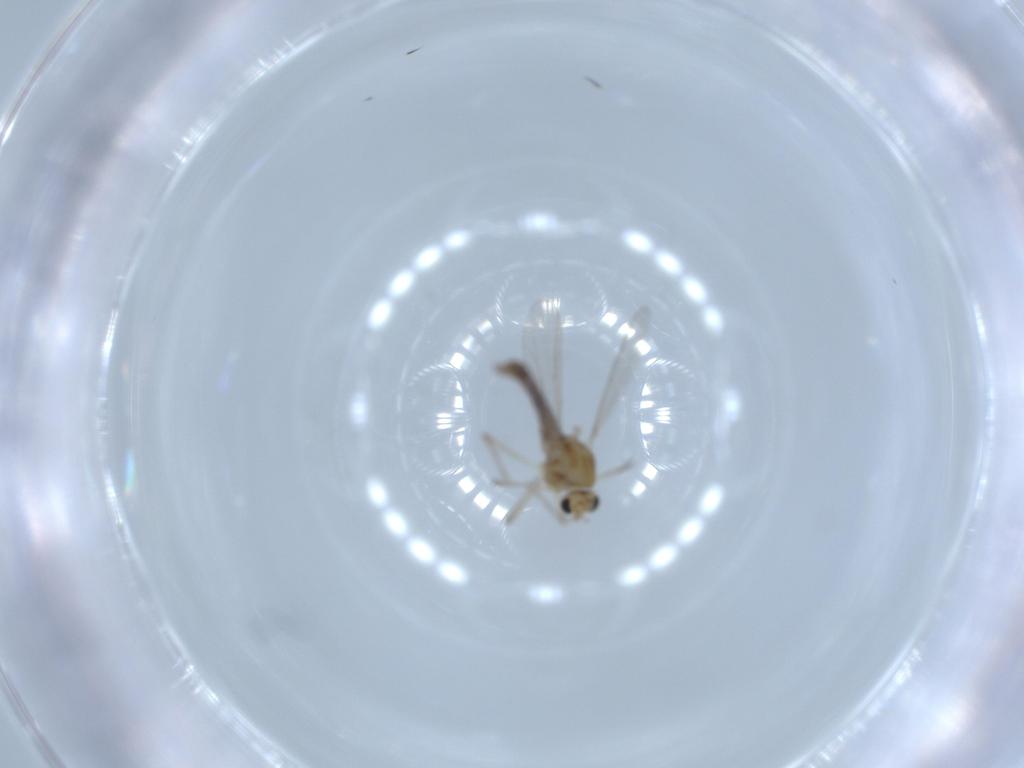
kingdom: Animalia
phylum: Arthropoda
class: Insecta
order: Diptera
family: Chironomidae
